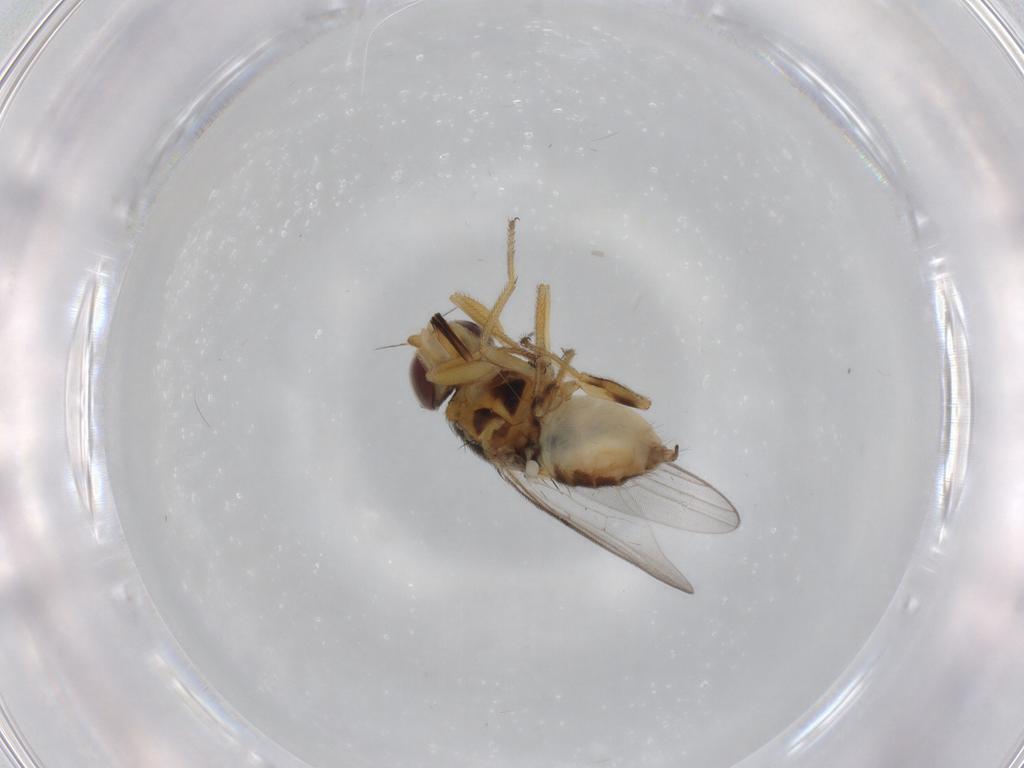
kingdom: Animalia
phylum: Arthropoda
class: Insecta
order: Diptera
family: Chloropidae
